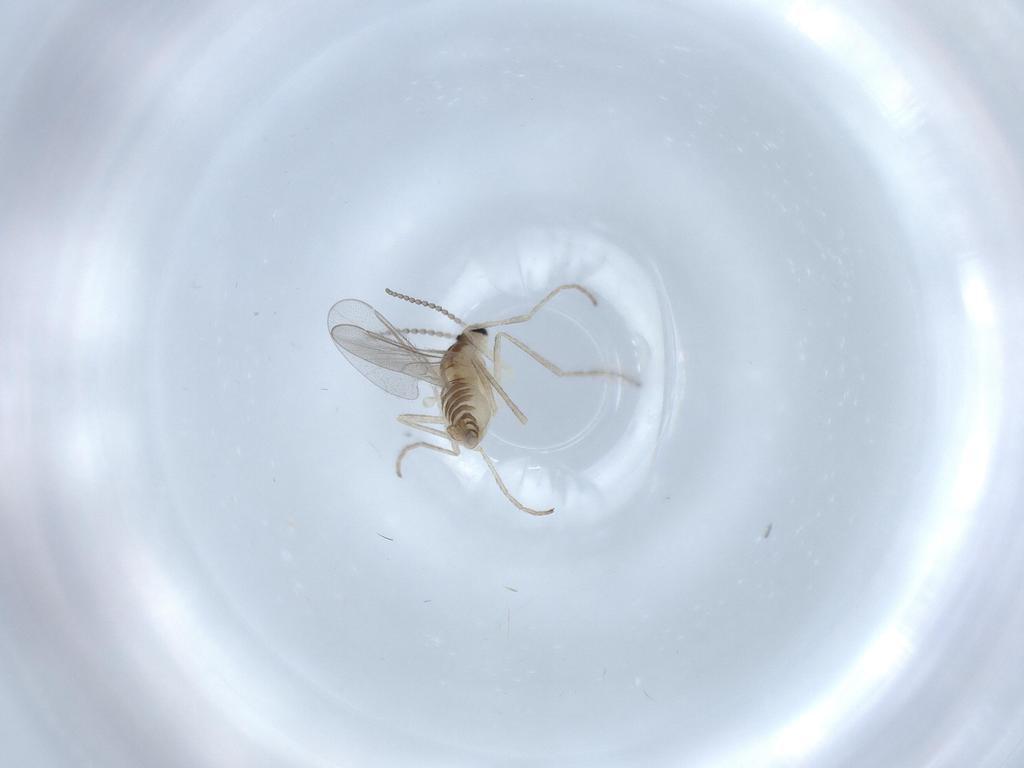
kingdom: Animalia
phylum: Arthropoda
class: Insecta
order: Diptera
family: Cecidomyiidae
